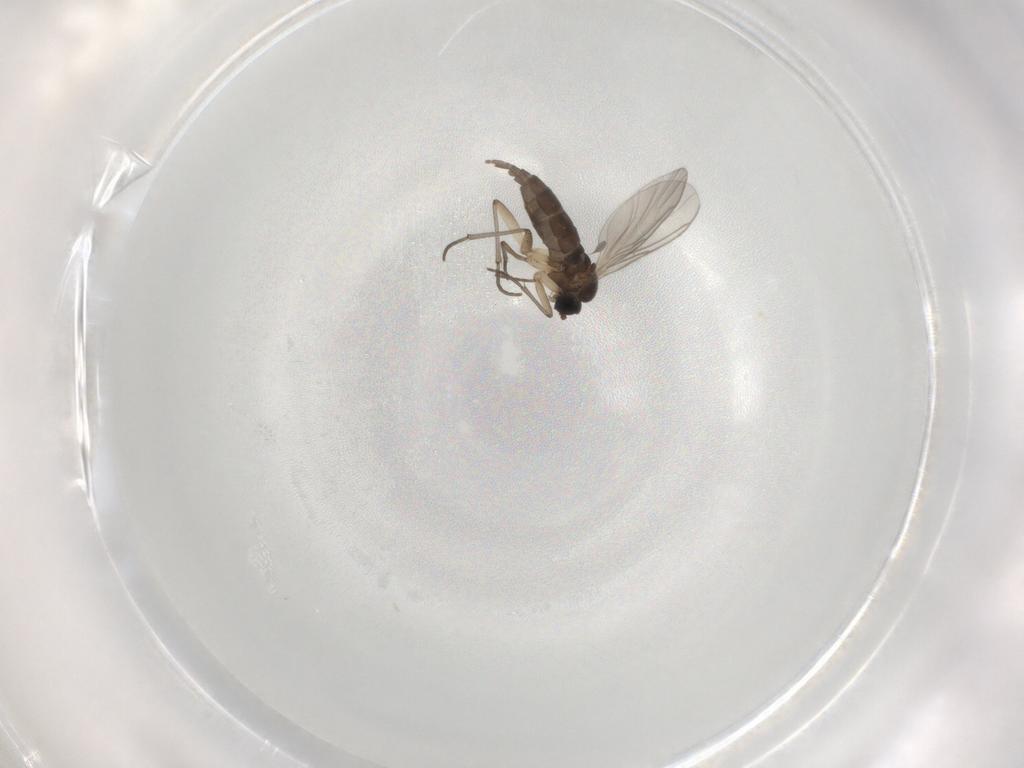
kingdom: Animalia
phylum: Arthropoda
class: Insecta
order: Diptera
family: Sciaridae
